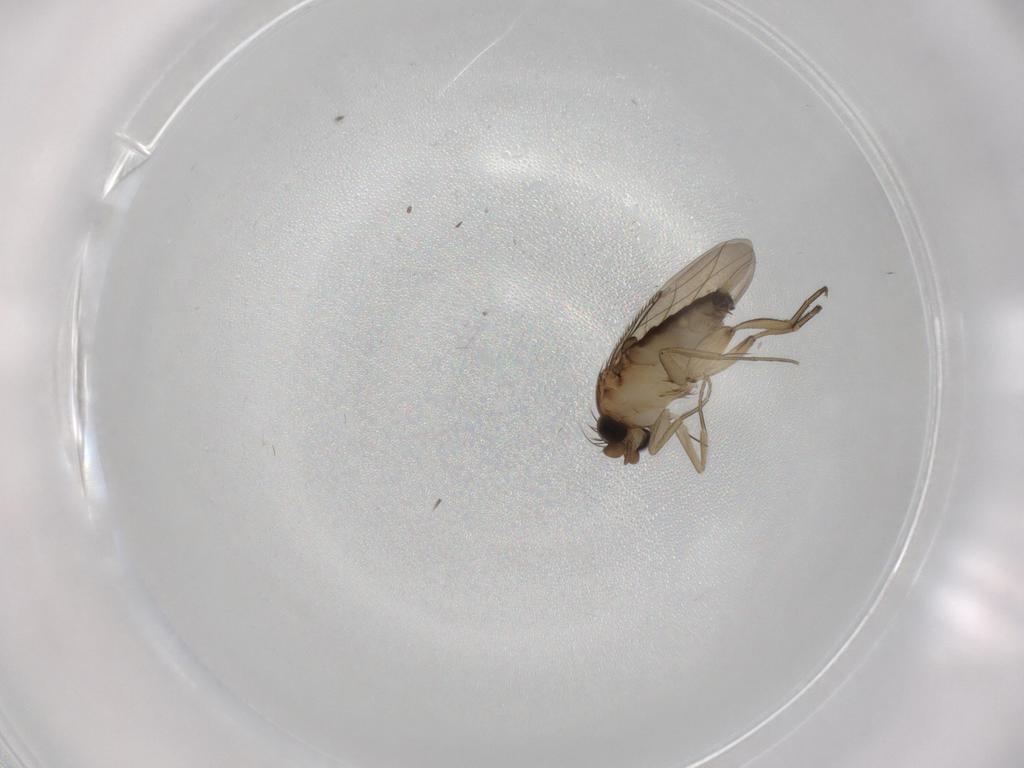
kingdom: Animalia
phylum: Arthropoda
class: Insecta
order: Diptera
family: Phoridae
